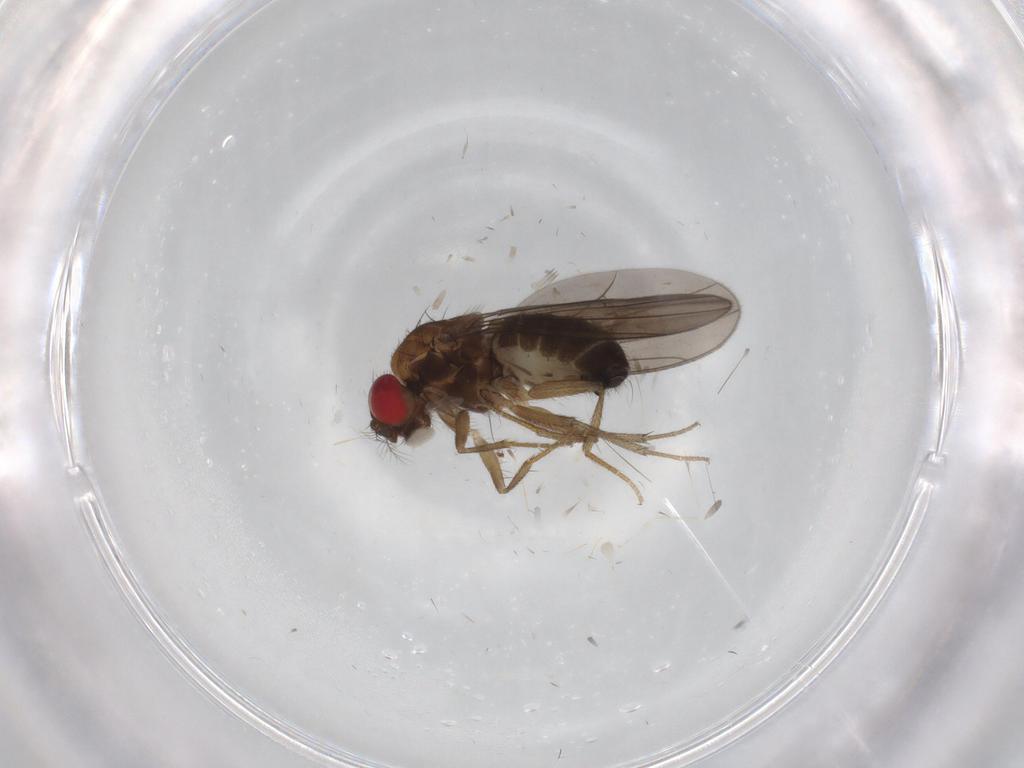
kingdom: Animalia
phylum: Arthropoda
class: Insecta
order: Diptera
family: Drosophilidae
